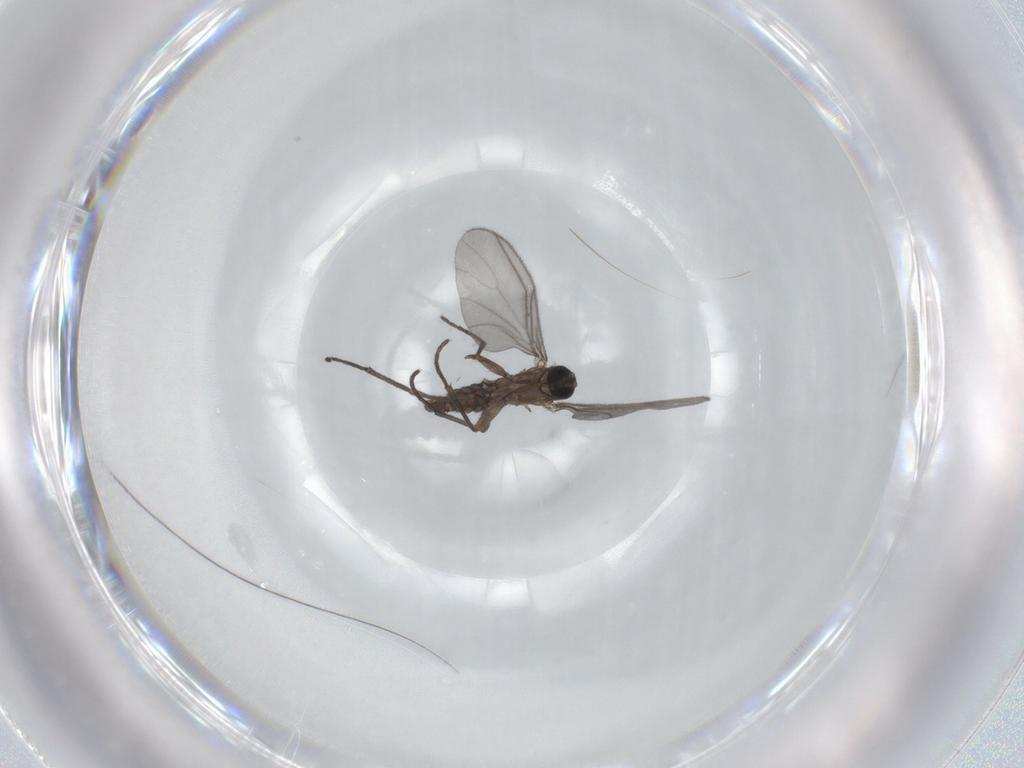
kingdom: Animalia
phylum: Arthropoda
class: Insecta
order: Diptera
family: Sciaridae
